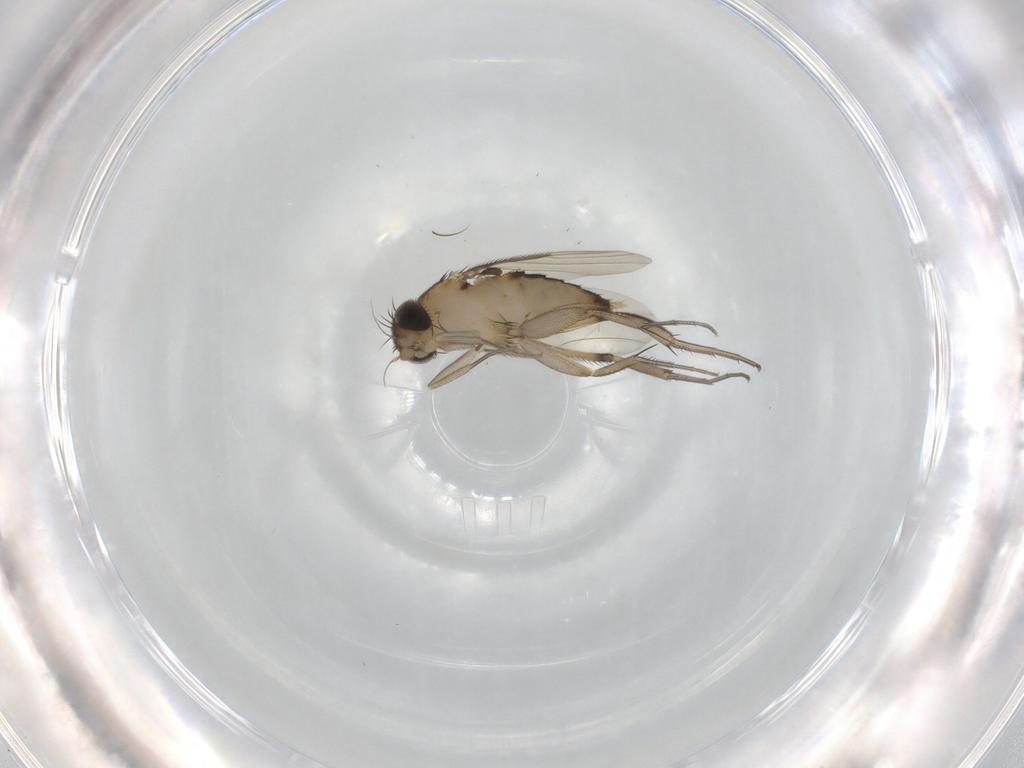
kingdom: Animalia
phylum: Arthropoda
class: Insecta
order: Diptera
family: Phoridae
